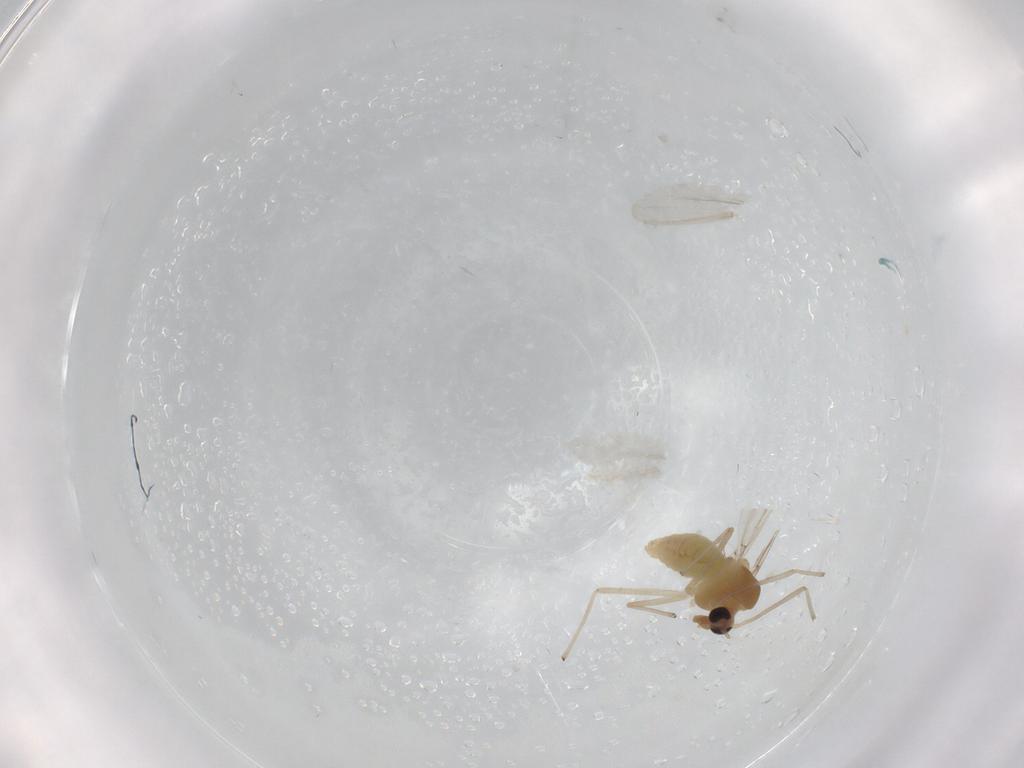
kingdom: Animalia
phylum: Arthropoda
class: Insecta
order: Diptera
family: Chironomidae
